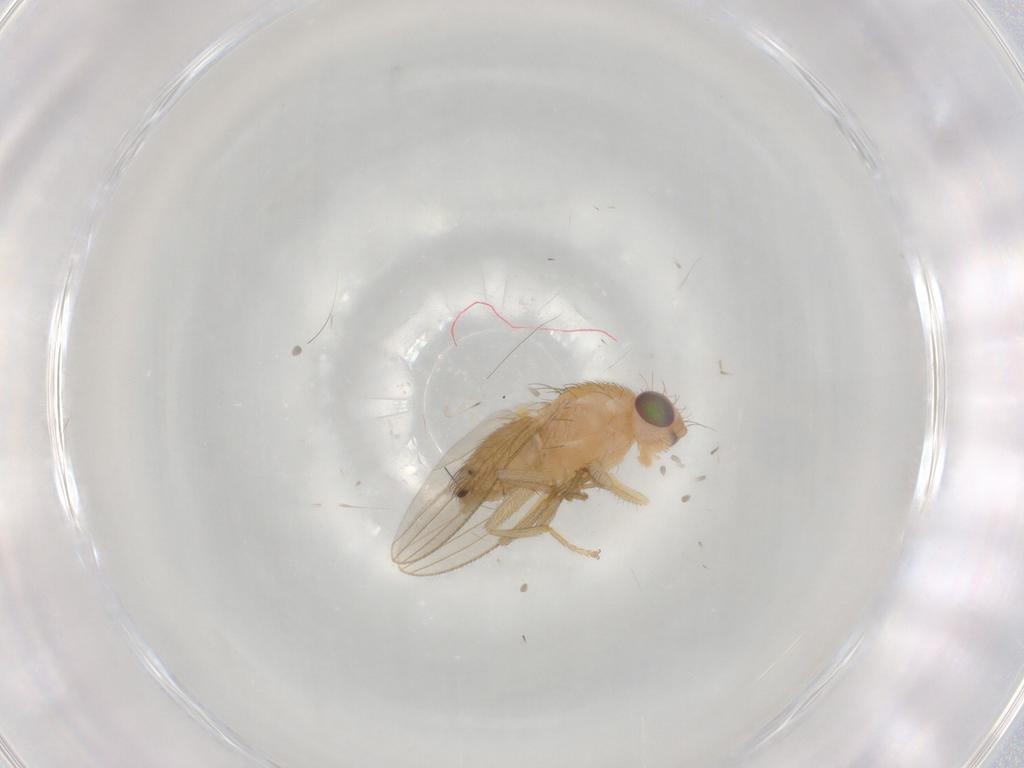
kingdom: Animalia
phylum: Arthropoda
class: Insecta
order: Diptera
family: Chyromyidae
